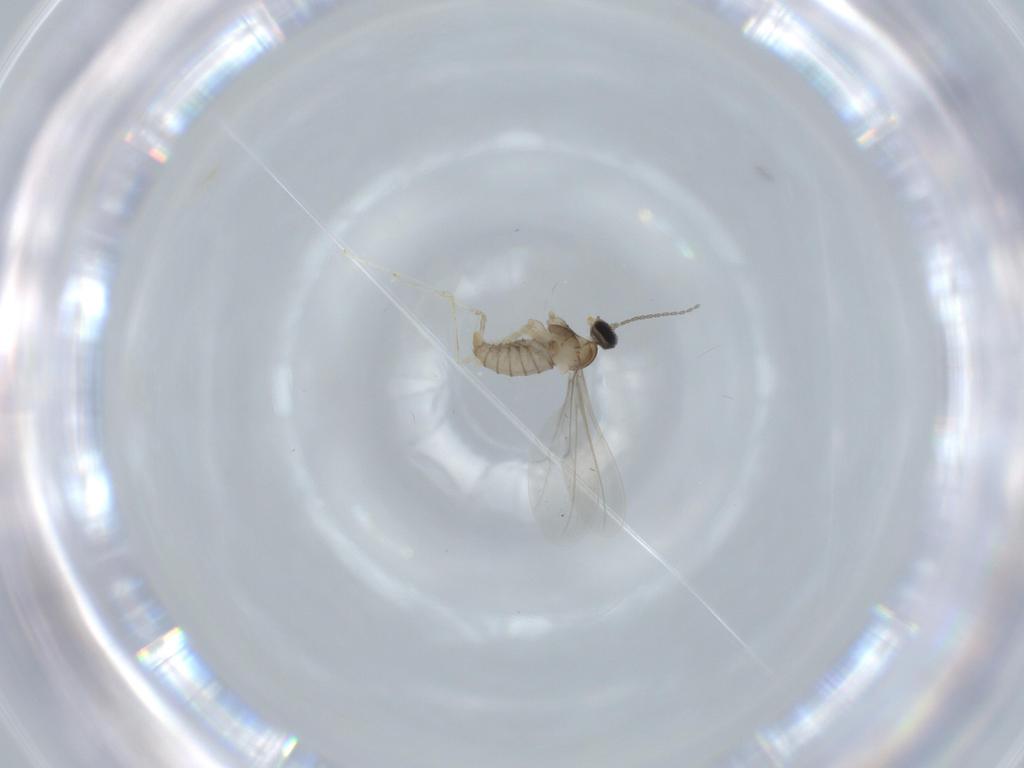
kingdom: Animalia
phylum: Arthropoda
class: Insecta
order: Diptera
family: Cecidomyiidae
